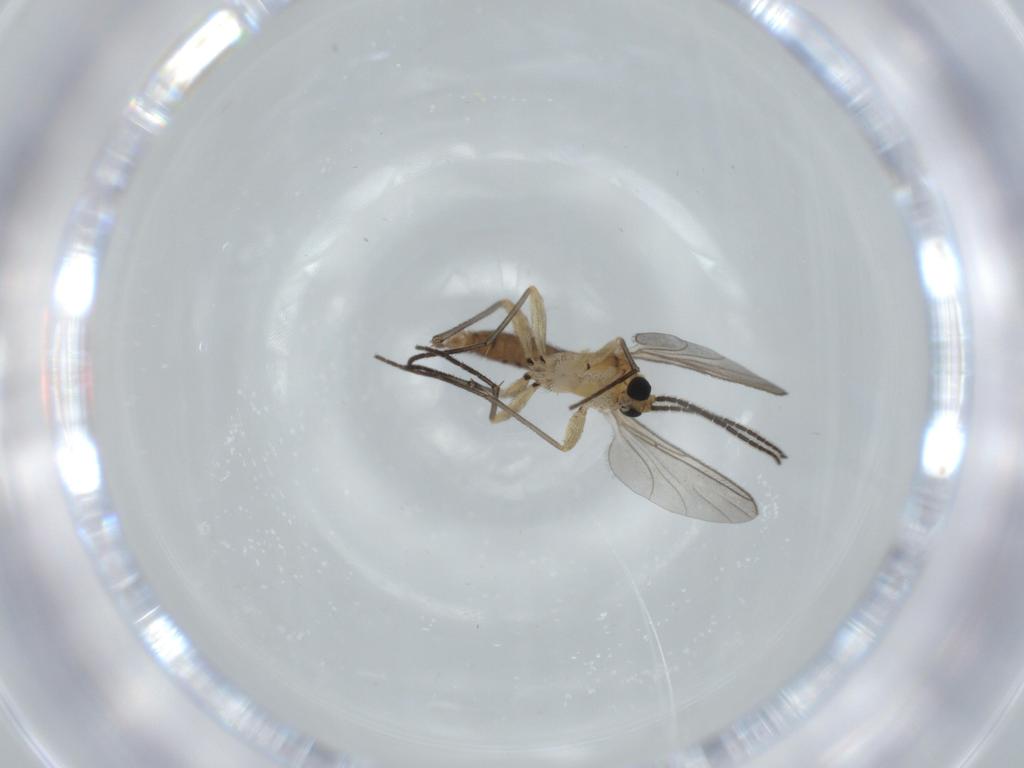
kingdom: Animalia
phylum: Arthropoda
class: Insecta
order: Diptera
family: Sciaridae
